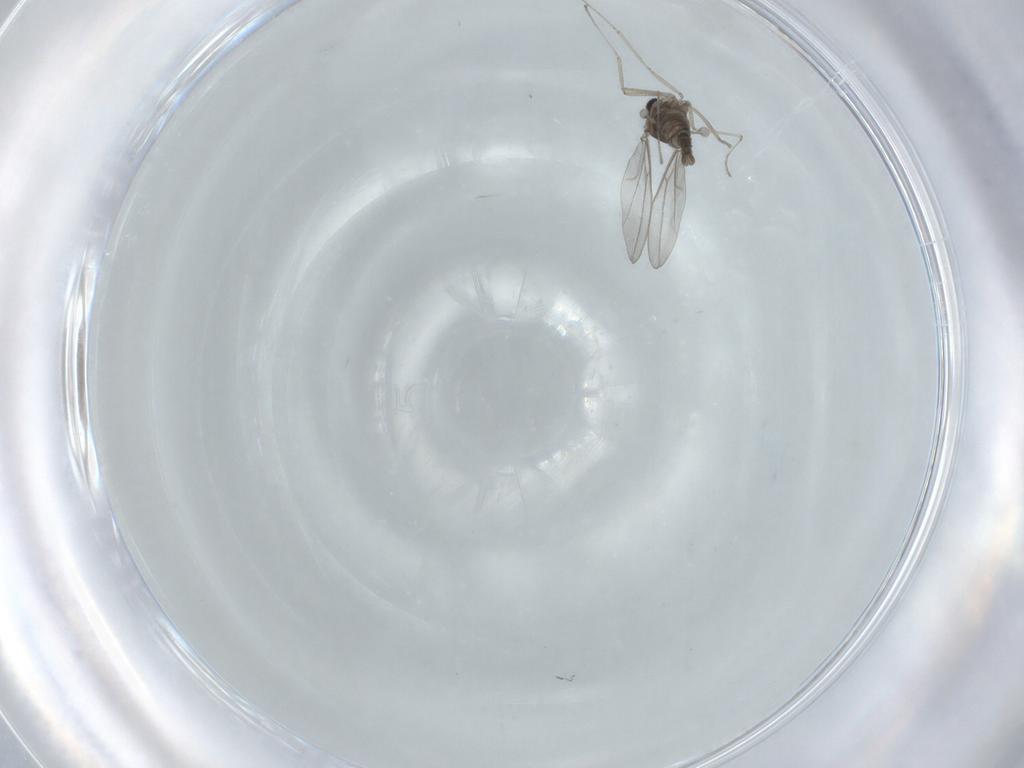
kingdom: Animalia
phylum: Arthropoda
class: Insecta
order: Diptera
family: Cecidomyiidae
